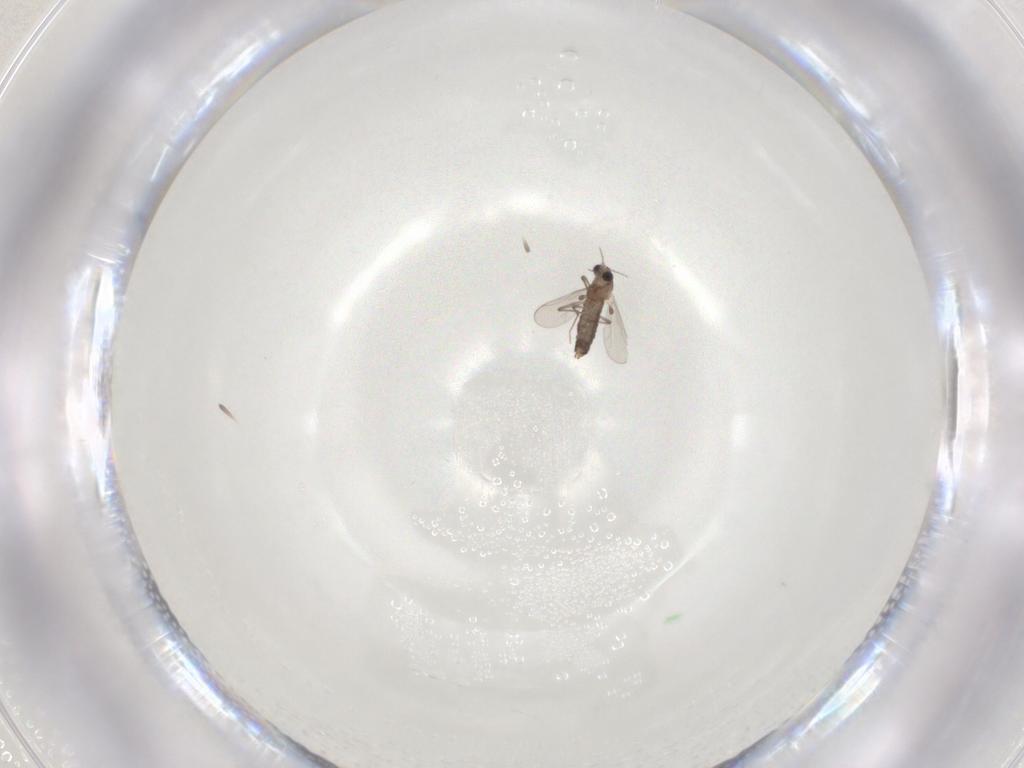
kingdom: Animalia
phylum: Arthropoda
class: Insecta
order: Diptera
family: Chironomidae
